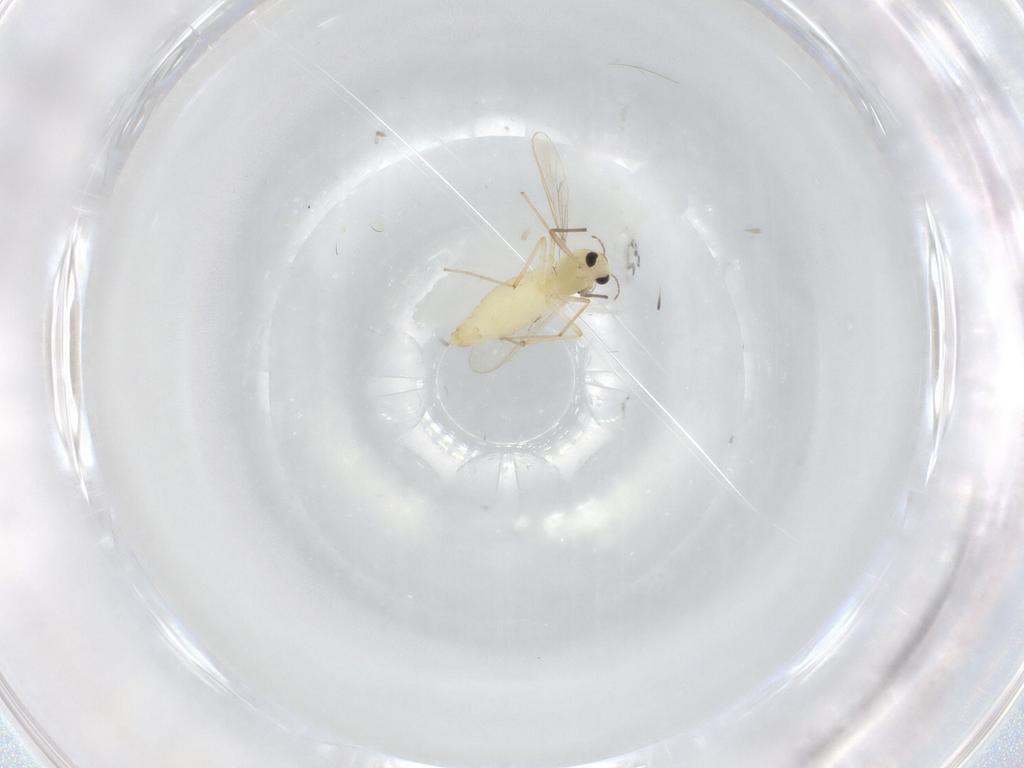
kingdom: Animalia
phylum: Arthropoda
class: Insecta
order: Diptera
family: Chironomidae
